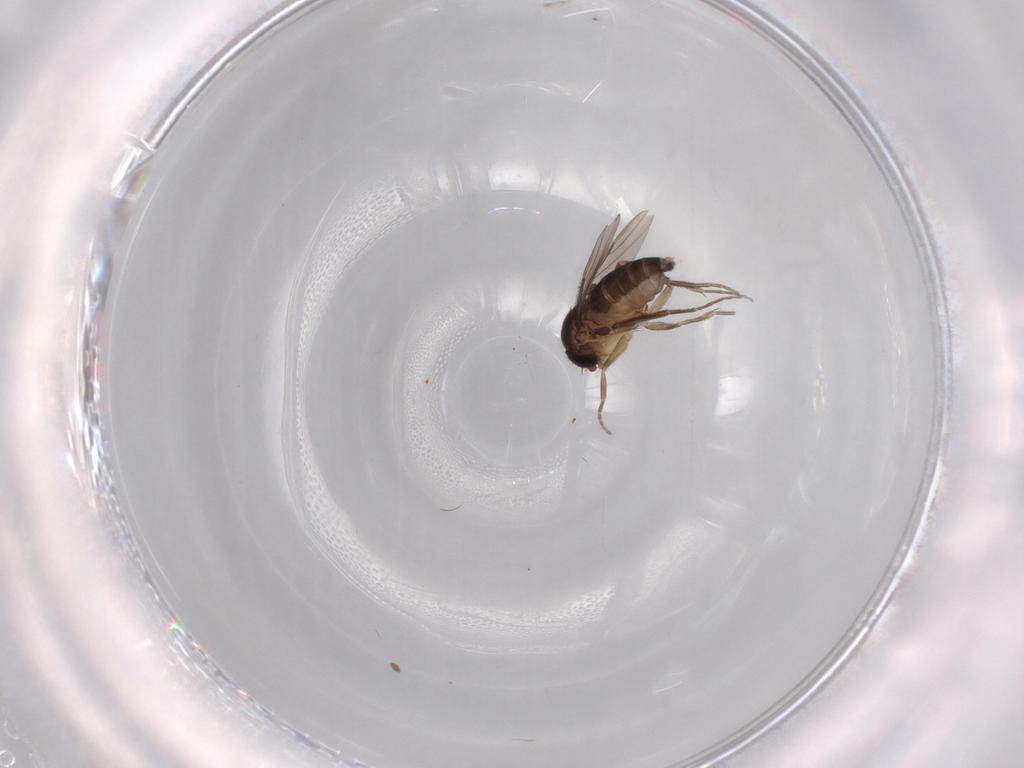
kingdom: Animalia
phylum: Arthropoda
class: Insecta
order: Diptera
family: Phoridae
